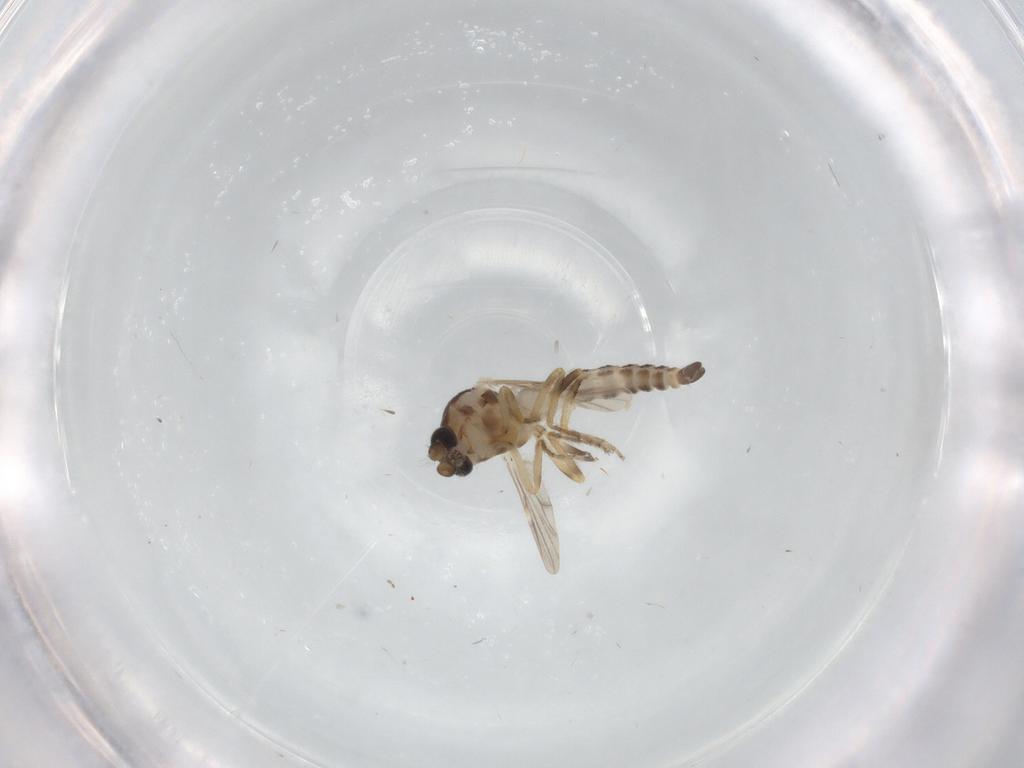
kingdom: Animalia
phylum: Arthropoda
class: Insecta
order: Diptera
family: Ceratopogonidae
